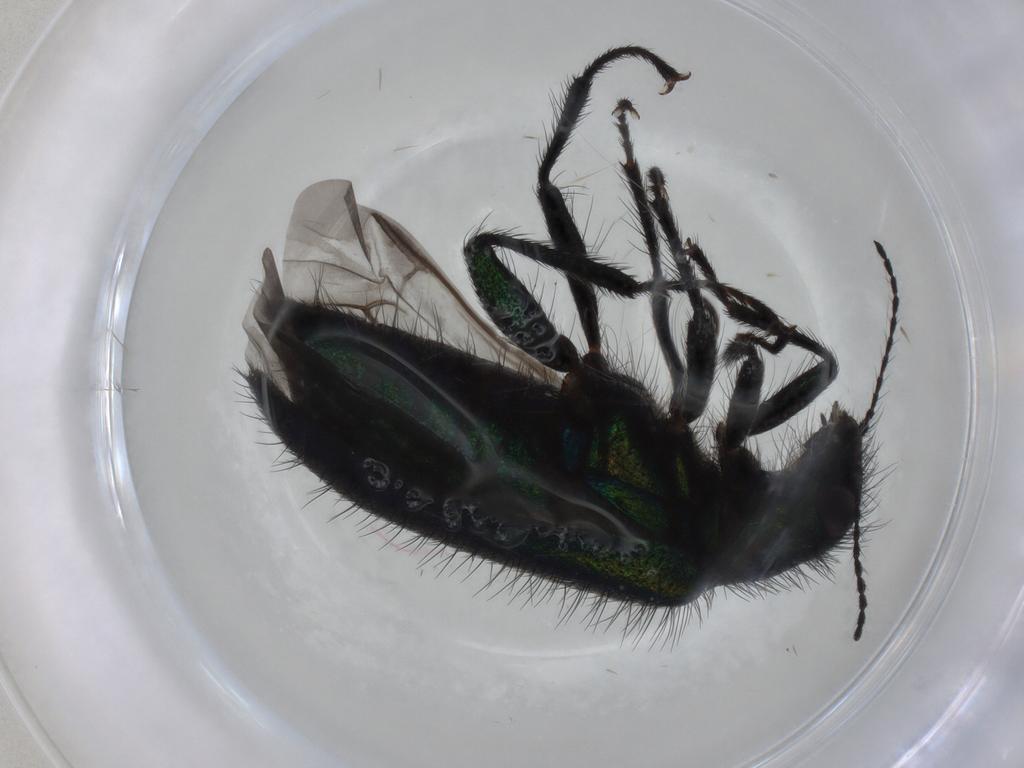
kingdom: Animalia
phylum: Arthropoda
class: Insecta
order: Coleoptera
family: Melyridae
